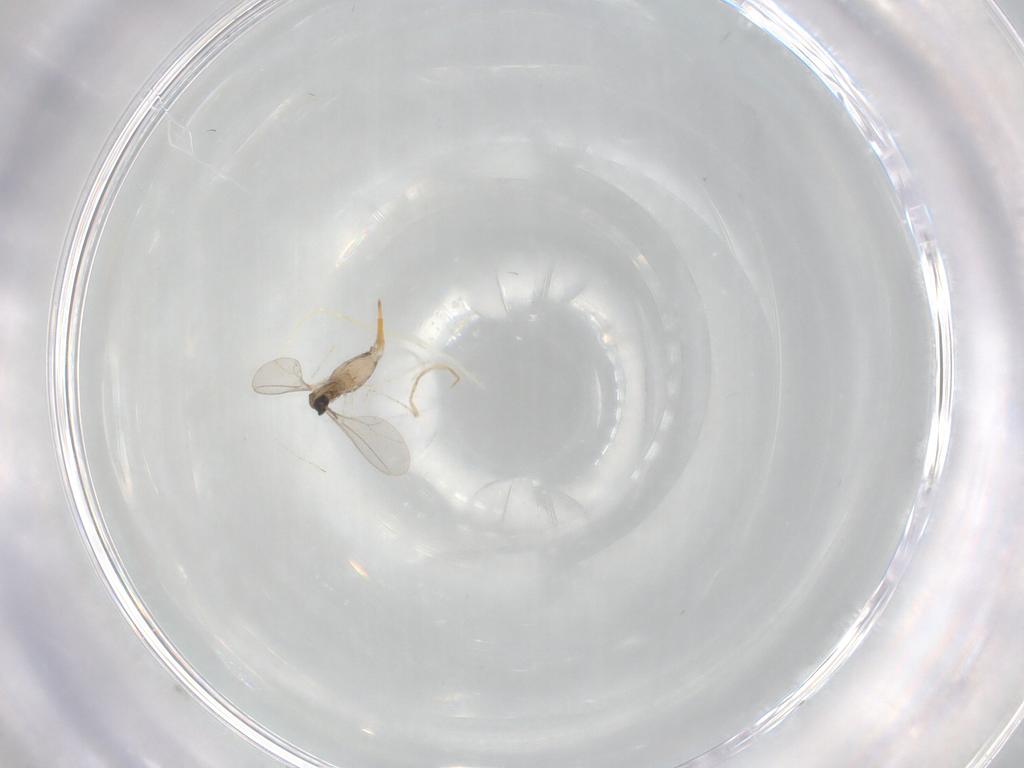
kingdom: Animalia
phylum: Arthropoda
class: Insecta
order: Diptera
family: Cecidomyiidae
